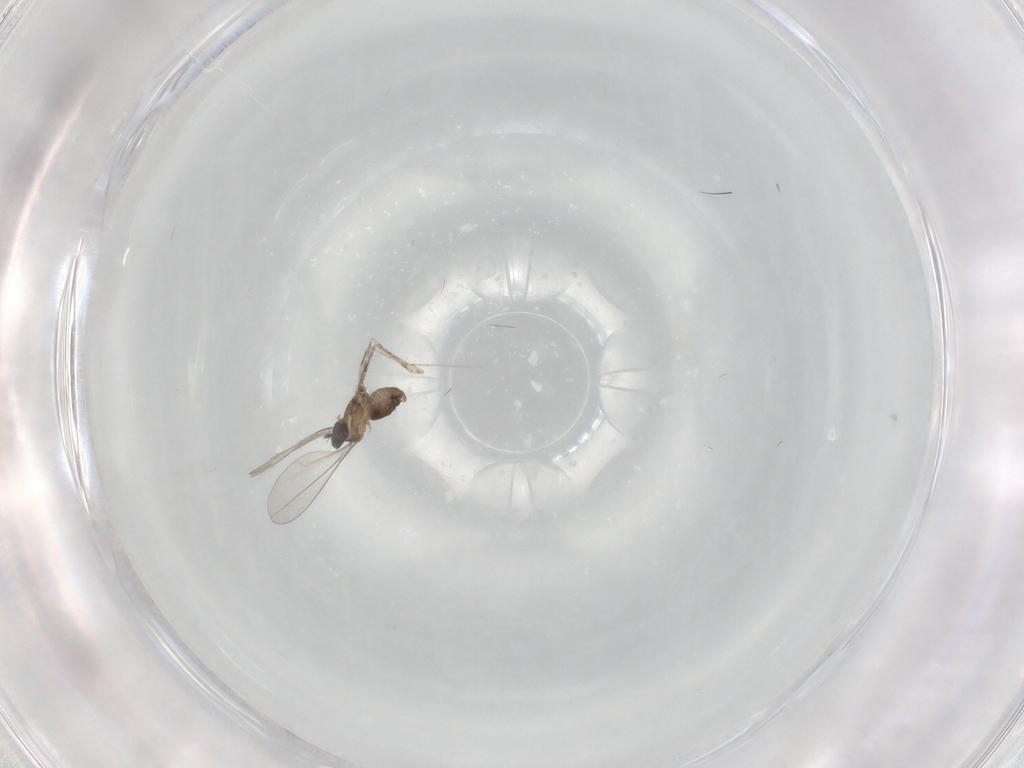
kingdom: Animalia
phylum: Arthropoda
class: Insecta
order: Diptera
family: Cecidomyiidae
